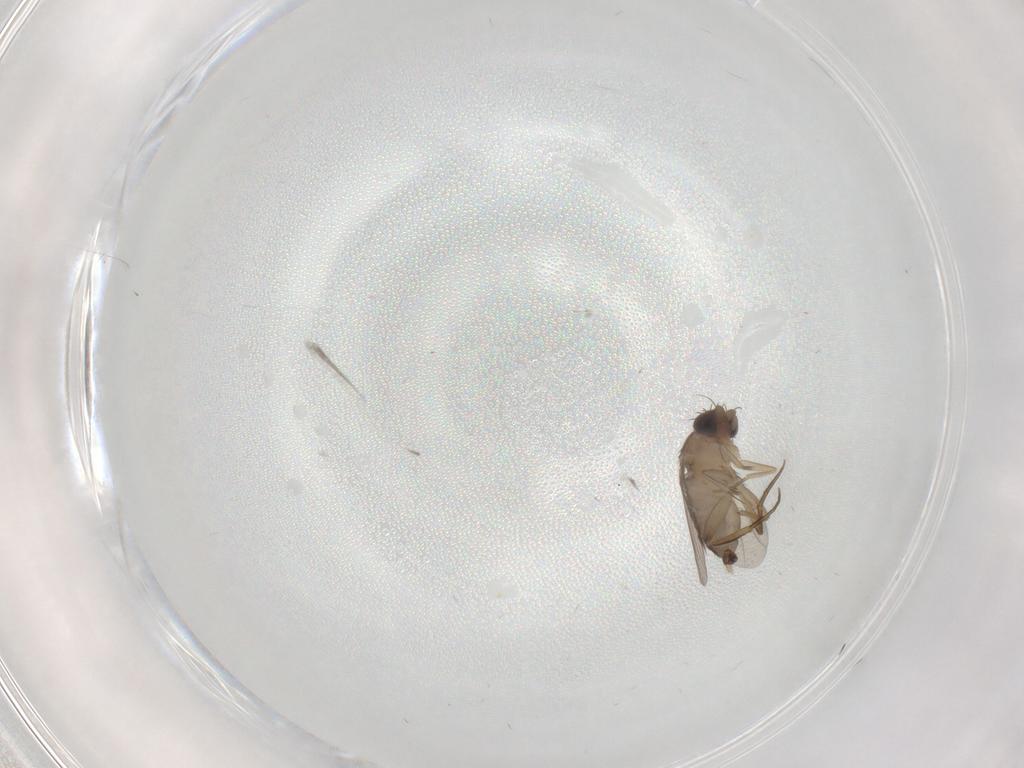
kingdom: Animalia
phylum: Arthropoda
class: Insecta
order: Diptera
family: Phoridae
